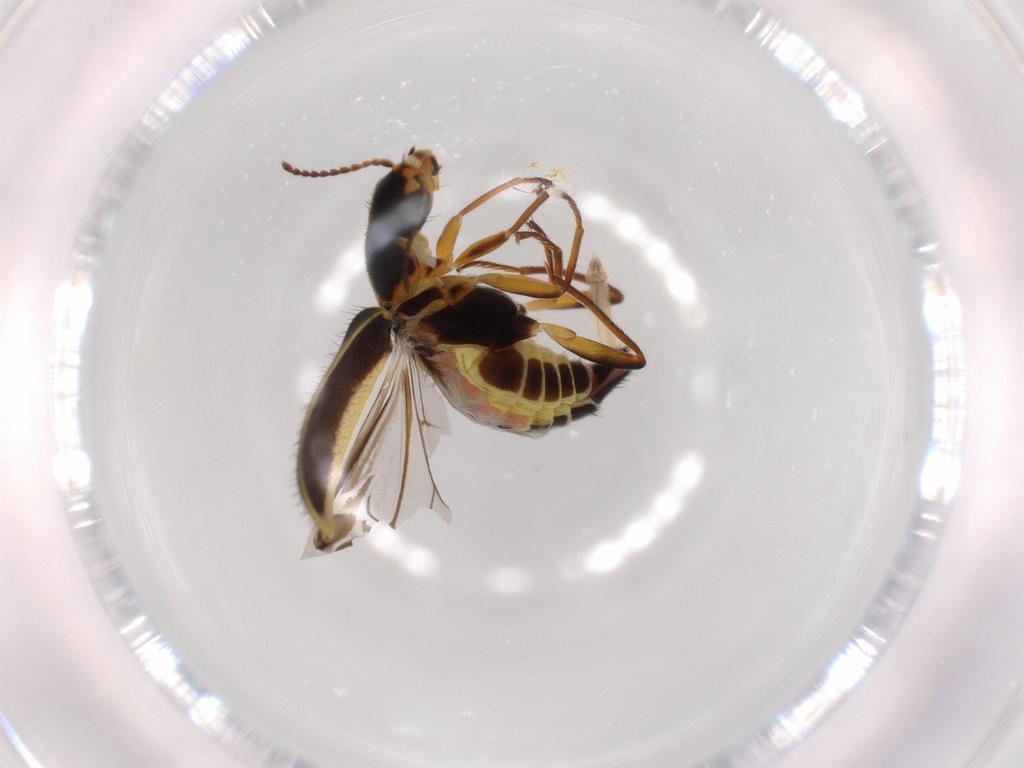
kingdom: Animalia
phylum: Arthropoda
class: Insecta
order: Coleoptera
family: Melyridae
